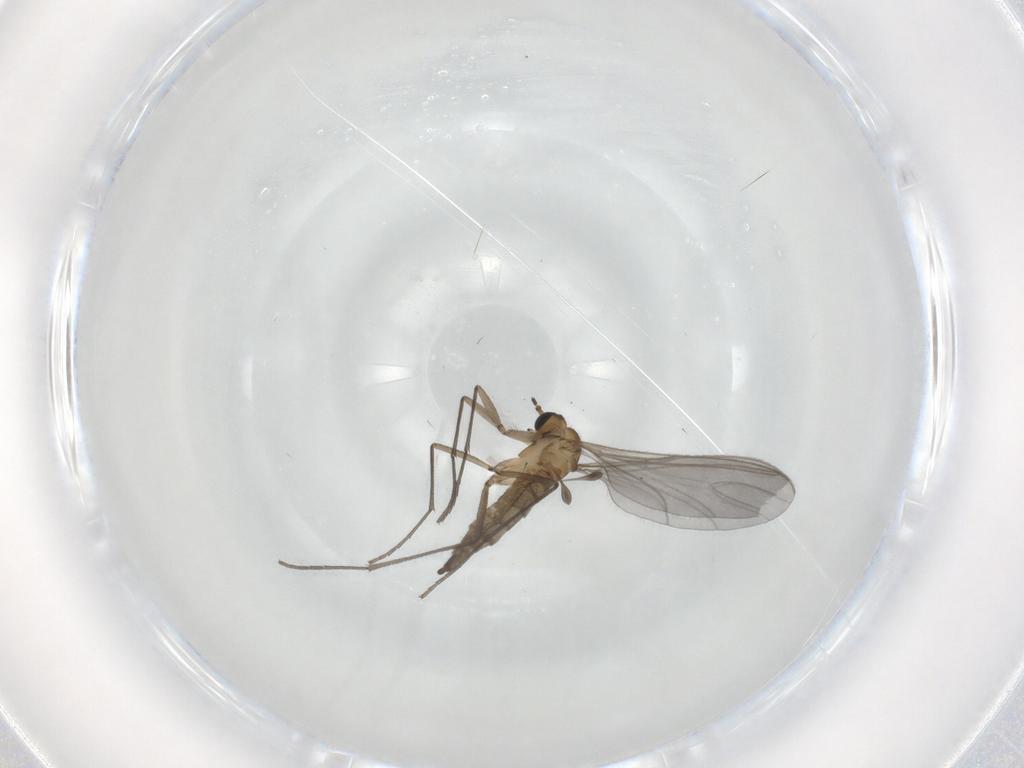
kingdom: Animalia
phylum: Arthropoda
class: Insecta
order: Diptera
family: Sciaridae
